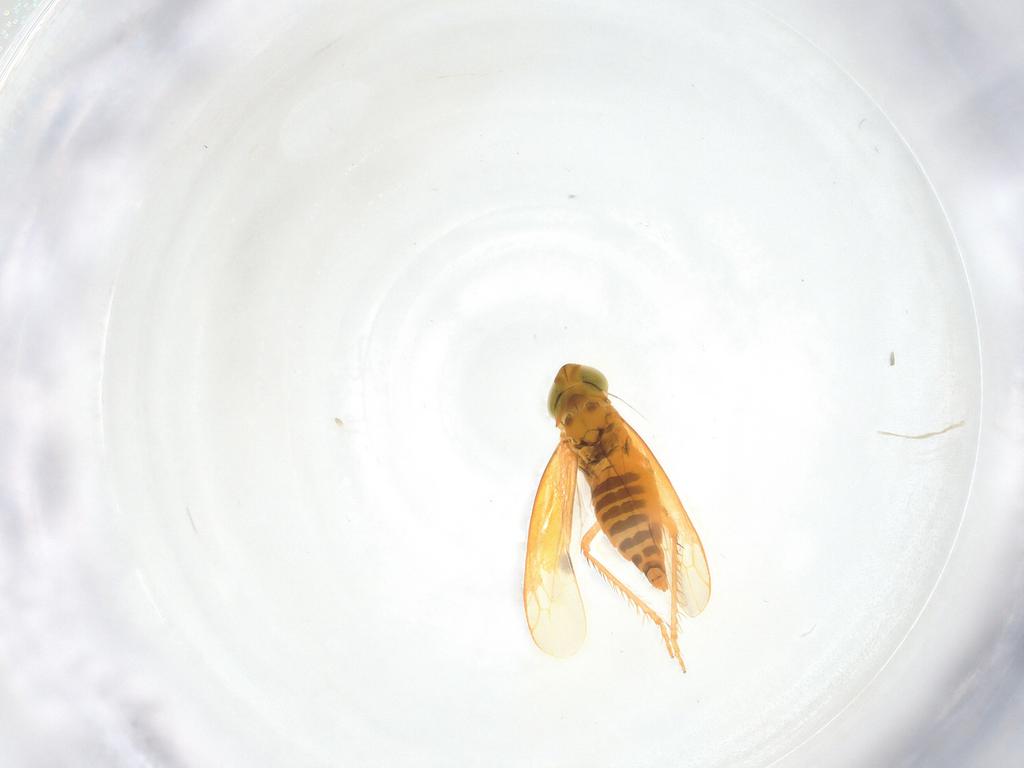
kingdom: Animalia
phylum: Arthropoda
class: Insecta
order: Hemiptera
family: Cicadellidae
